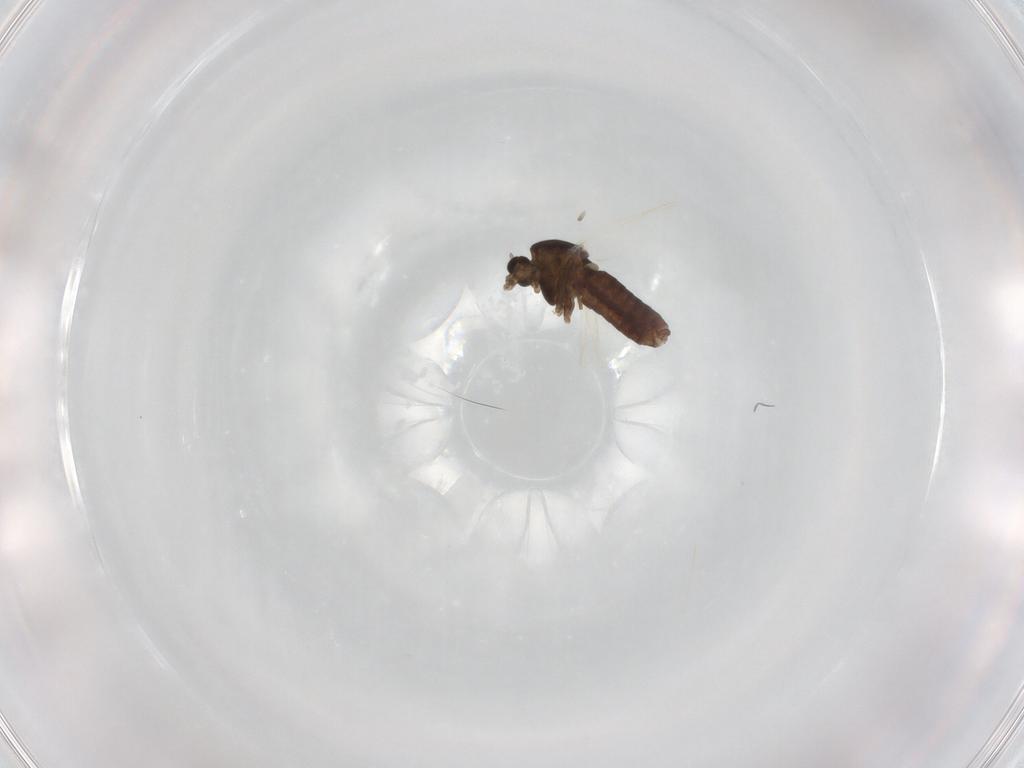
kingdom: Animalia
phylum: Arthropoda
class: Insecta
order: Diptera
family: Chironomidae
